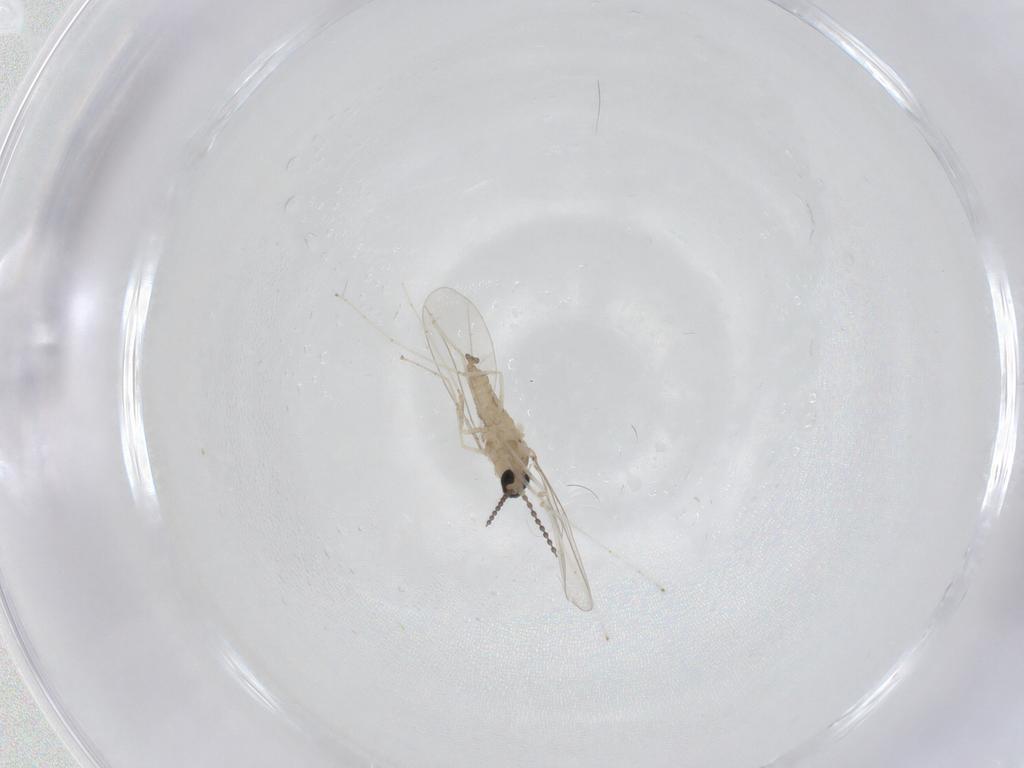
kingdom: Animalia
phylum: Arthropoda
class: Insecta
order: Diptera
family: Cecidomyiidae
